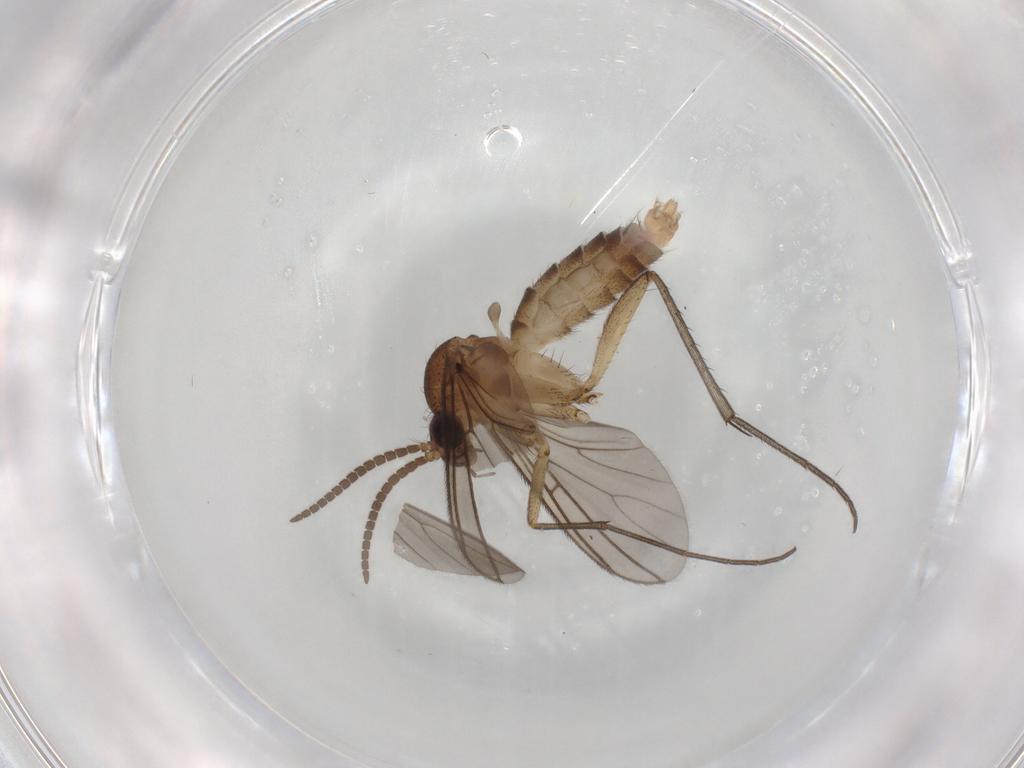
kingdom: Animalia
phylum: Arthropoda
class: Insecta
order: Diptera
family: Mycetophilidae
